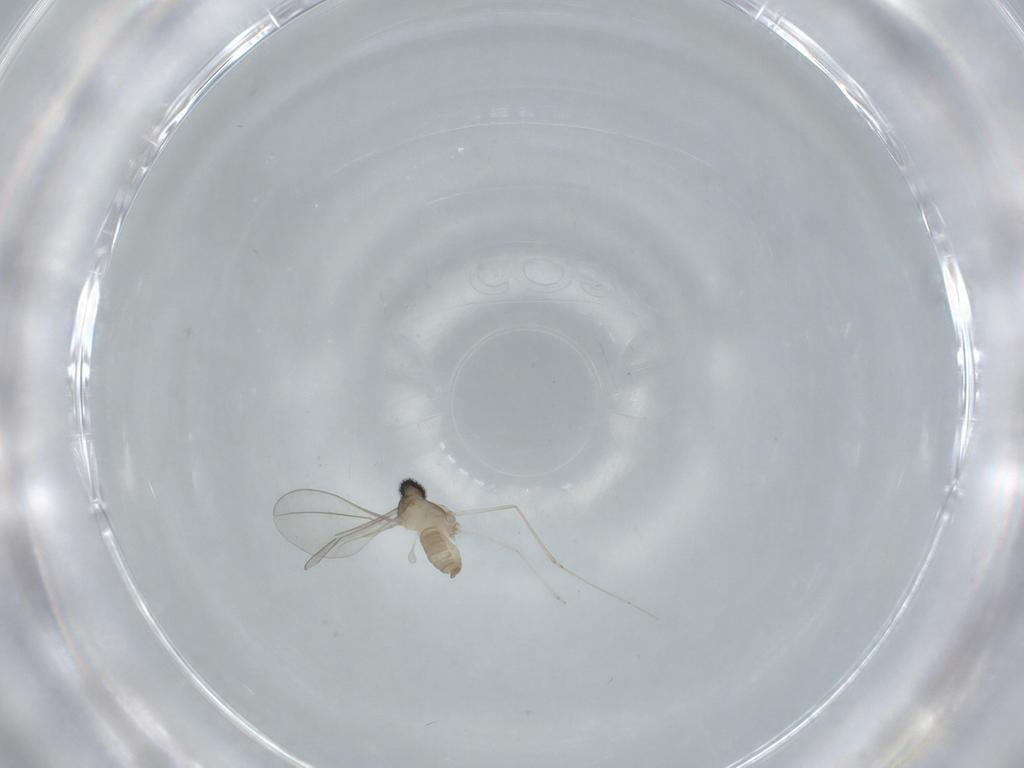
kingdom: Animalia
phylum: Arthropoda
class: Insecta
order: Diptera
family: Cecidomyiidae
